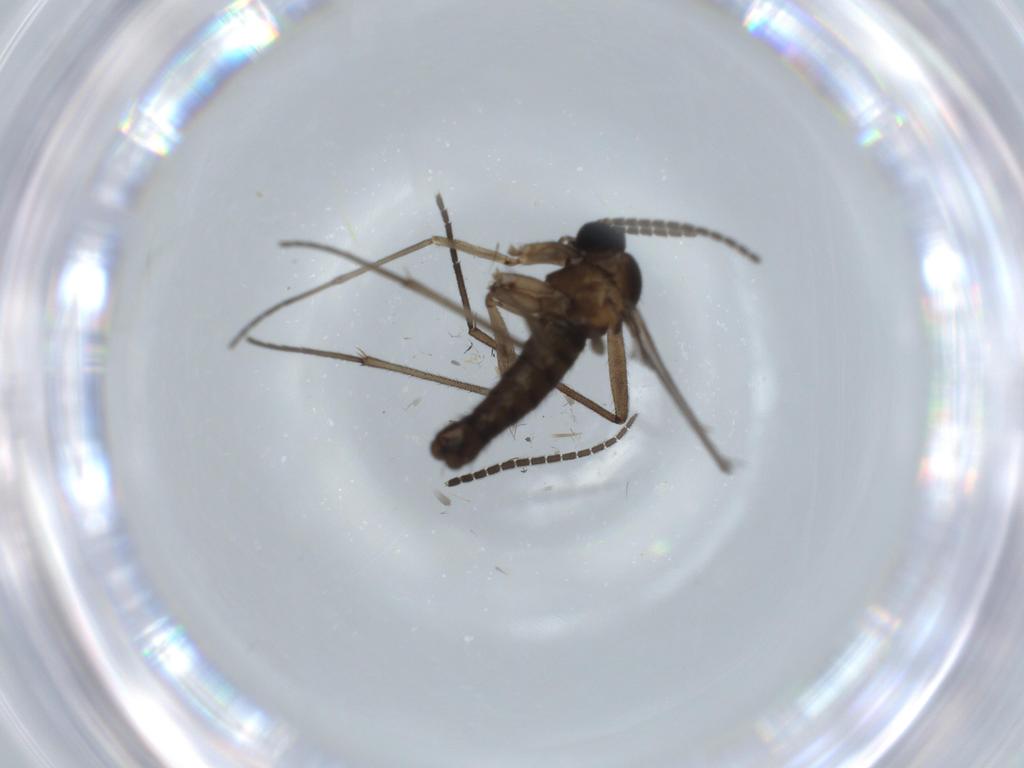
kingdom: Animalia
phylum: Arthropoda
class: Insecta
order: Diptera
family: Sciaridae
